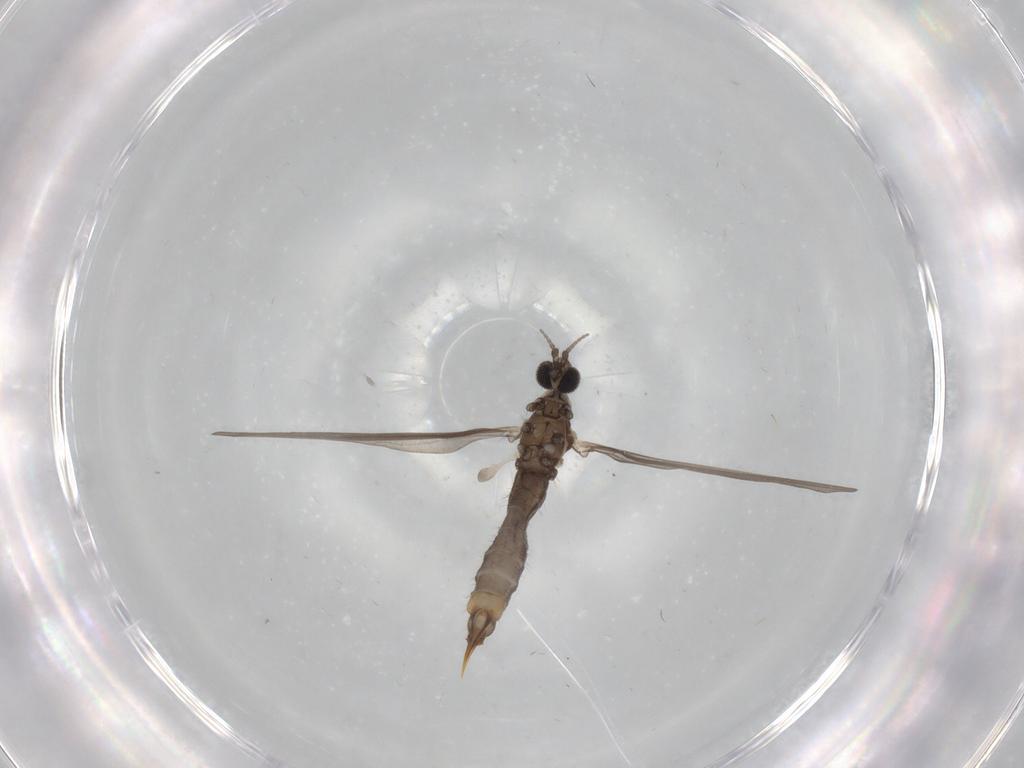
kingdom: Animalia
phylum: Arthropoda
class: Insecta
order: Diptera
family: Limoniidae
